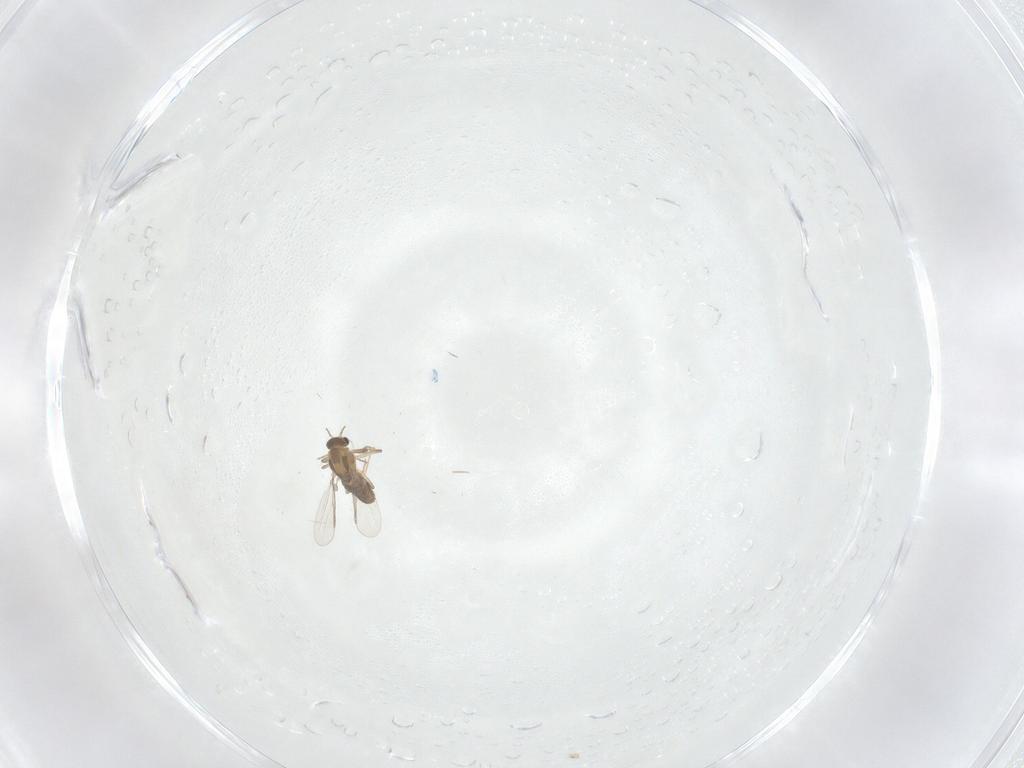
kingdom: Animalia
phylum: Arthropoda
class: Insecta
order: Diptera
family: Chironomidae
